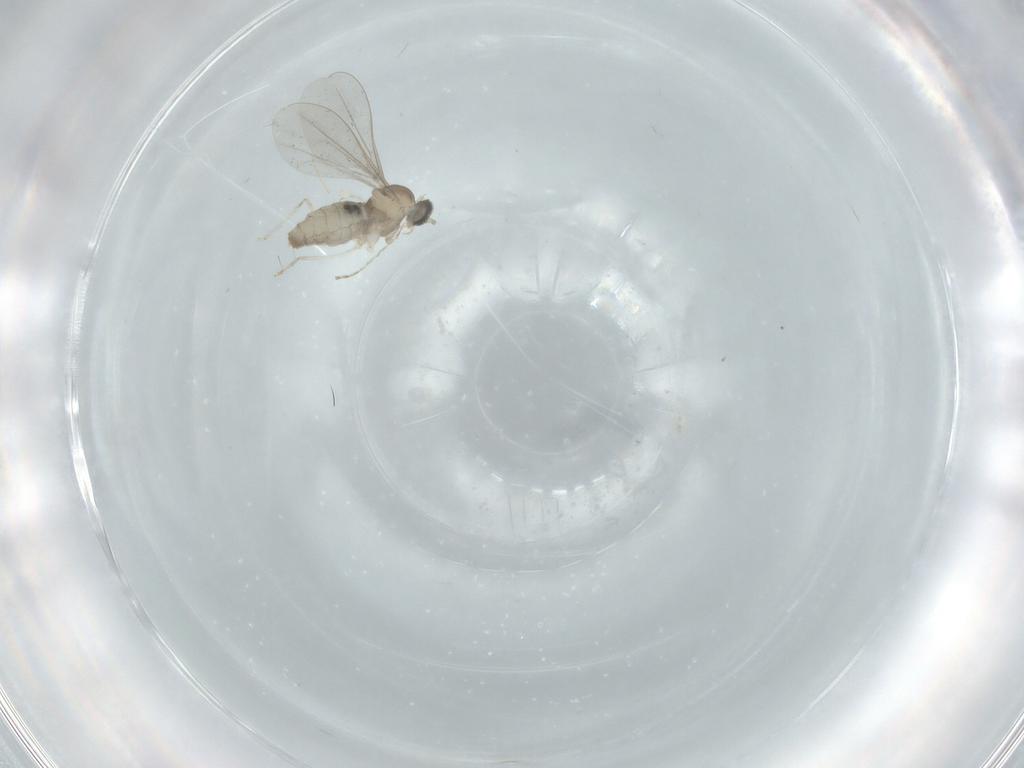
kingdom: Animalia
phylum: Arthropoda
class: Insecta
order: Diptera
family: Cecidomyiidae
